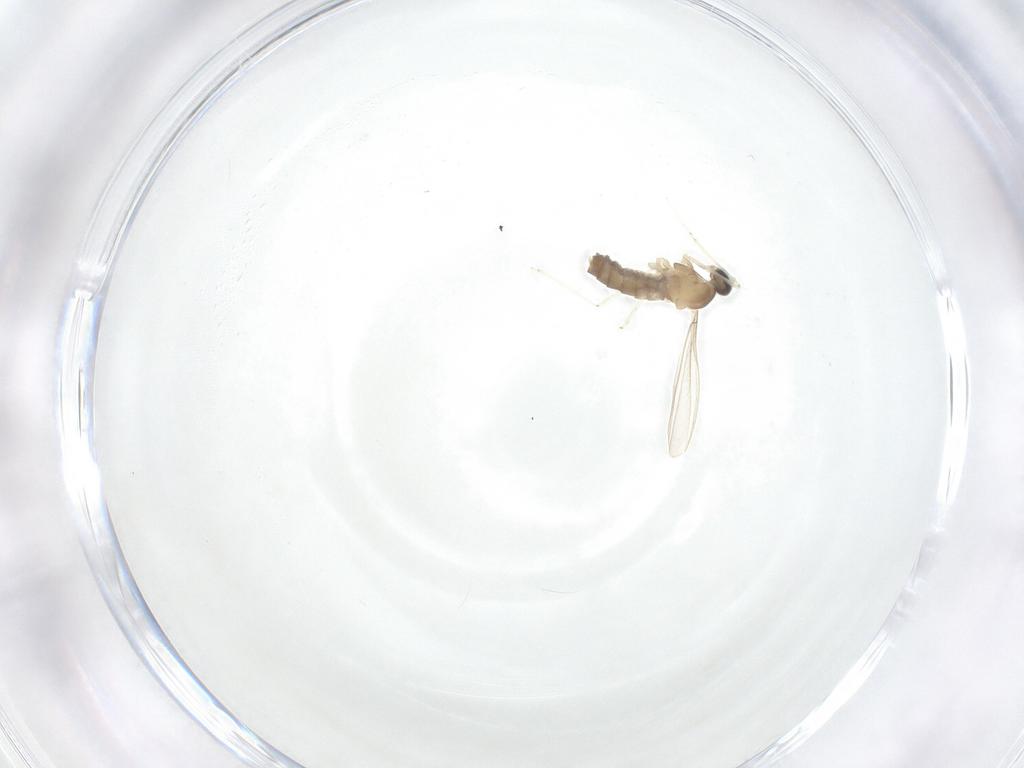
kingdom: Animalia
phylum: Arthropoda
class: Insecta
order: Diptera
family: Cecidomyiidae
